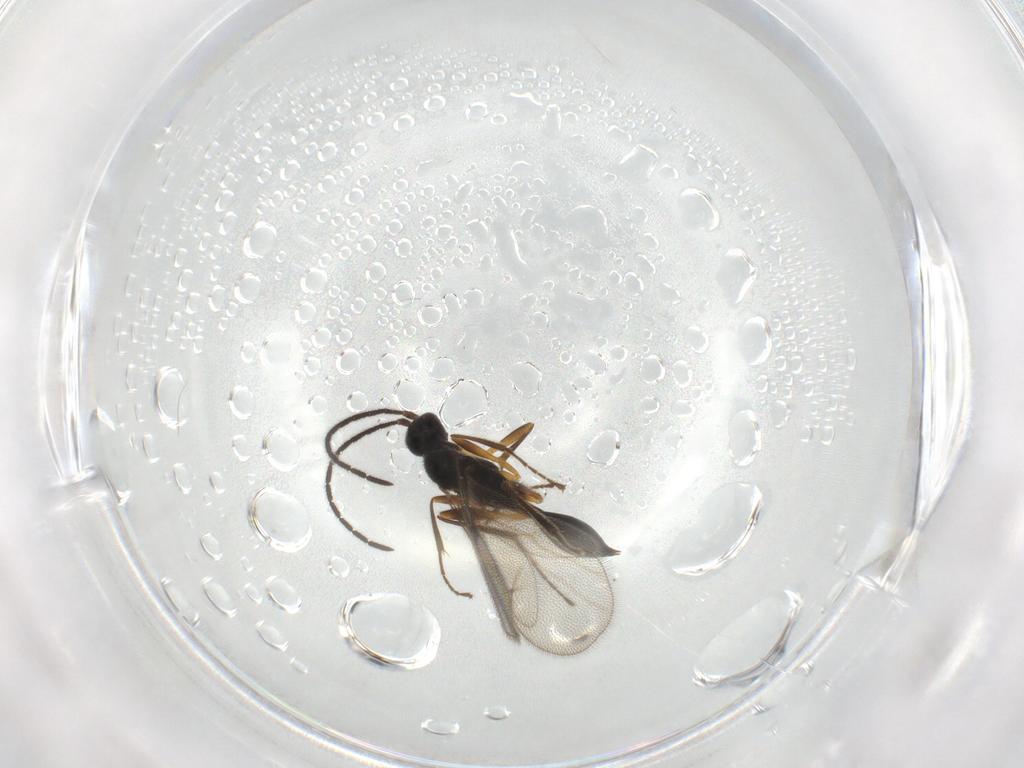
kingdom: Animalia
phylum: Arthropoda
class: Insecta
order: Hymenoptera
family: Proctotrupidae
